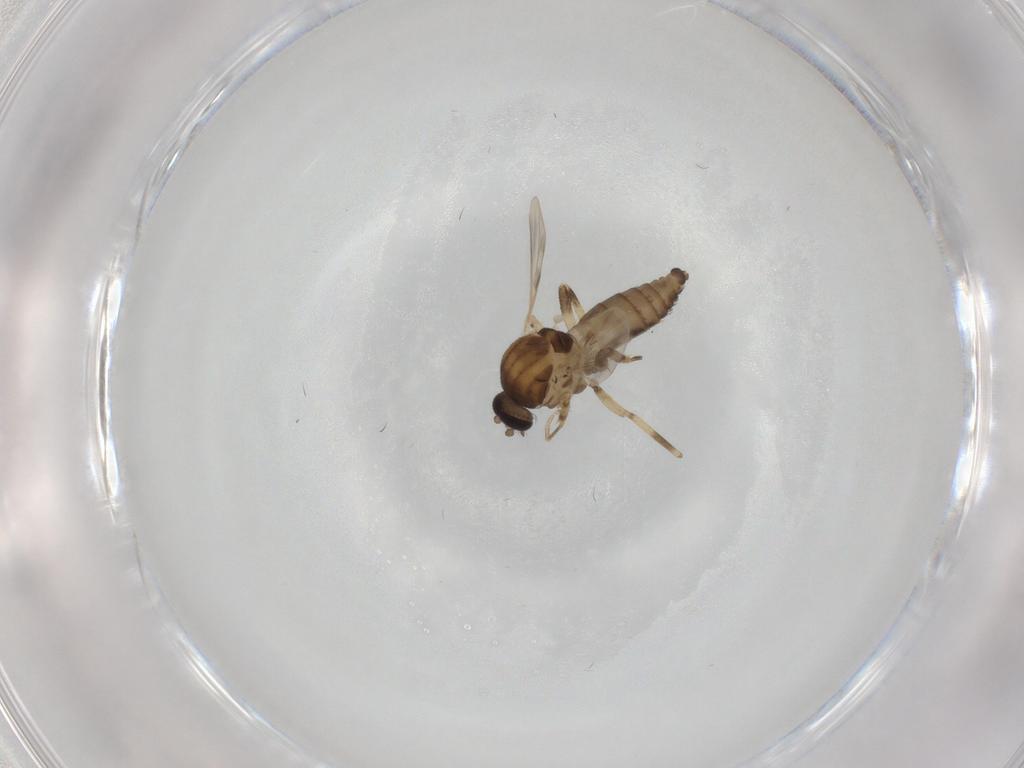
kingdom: Animalia
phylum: Arthropoda
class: Insecta
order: Diptera
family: Ceratopogonidae
